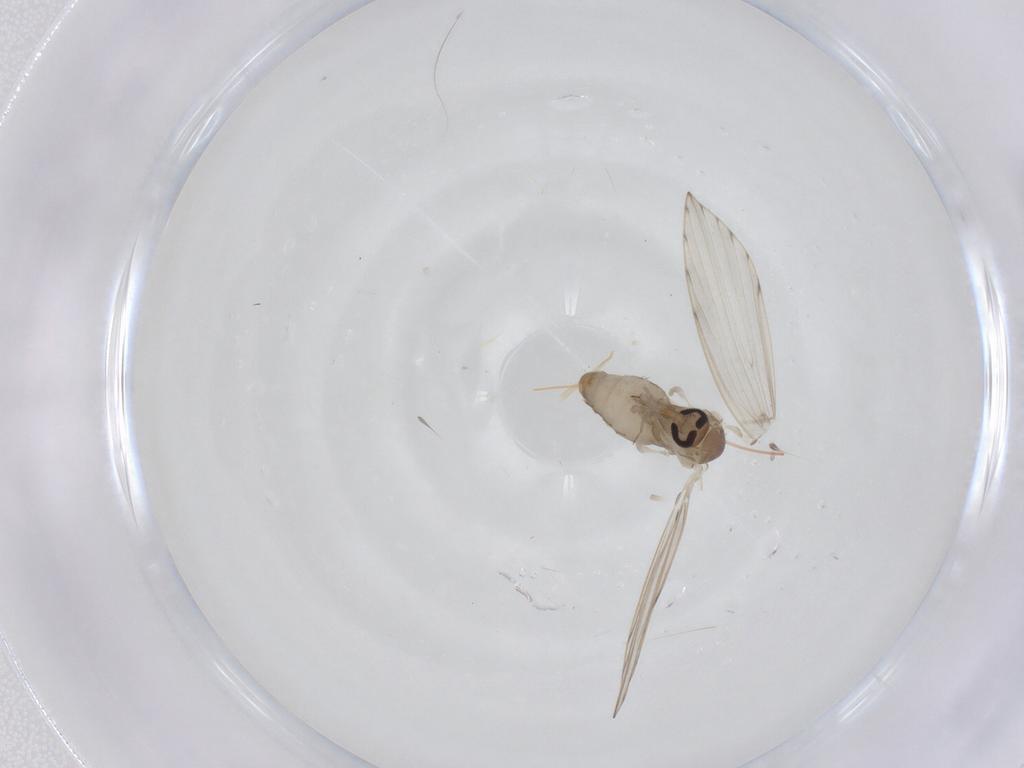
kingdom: Animalia
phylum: Arthropoda
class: Insecta
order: Diptera
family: Psychodidae
